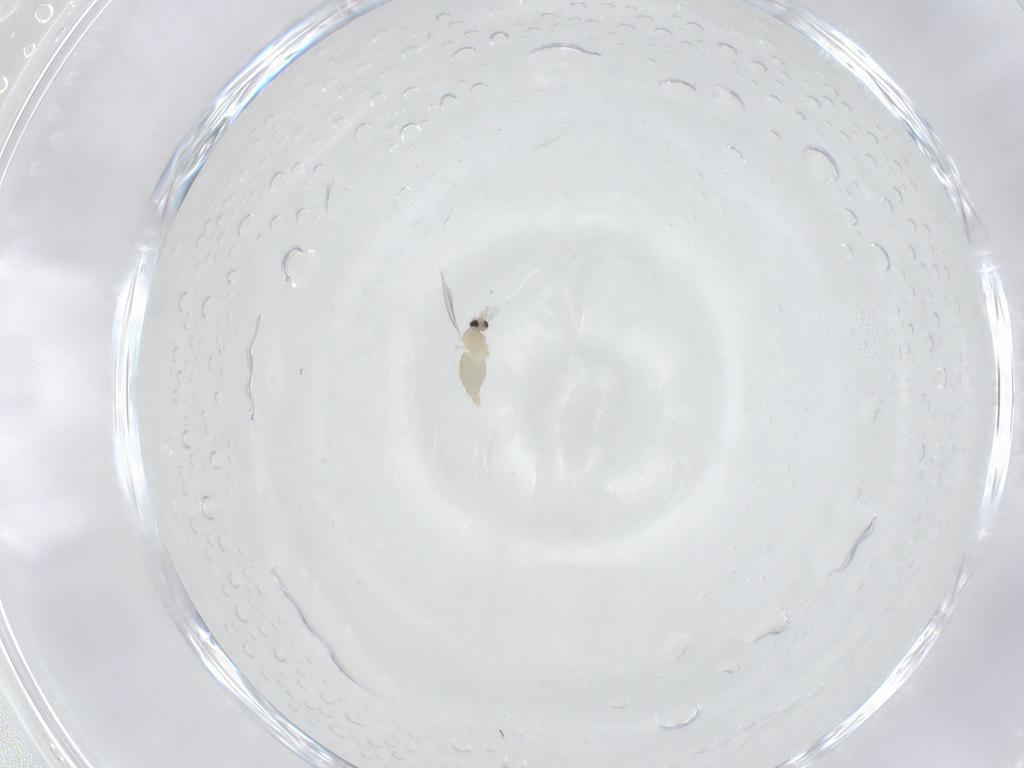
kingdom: Animalia
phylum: Arthropoda
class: Insecta
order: Diptera
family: Cecidomyiidae
